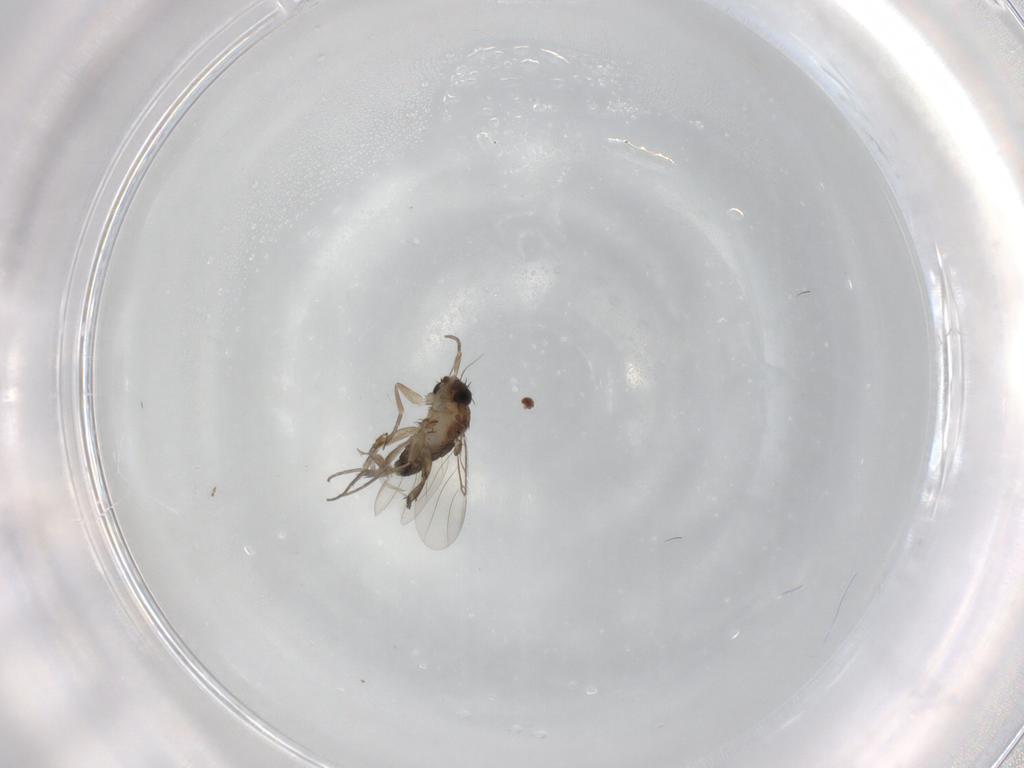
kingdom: Animalia
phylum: Arthropoda
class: Insecta
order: Diptera
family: Phoridae
